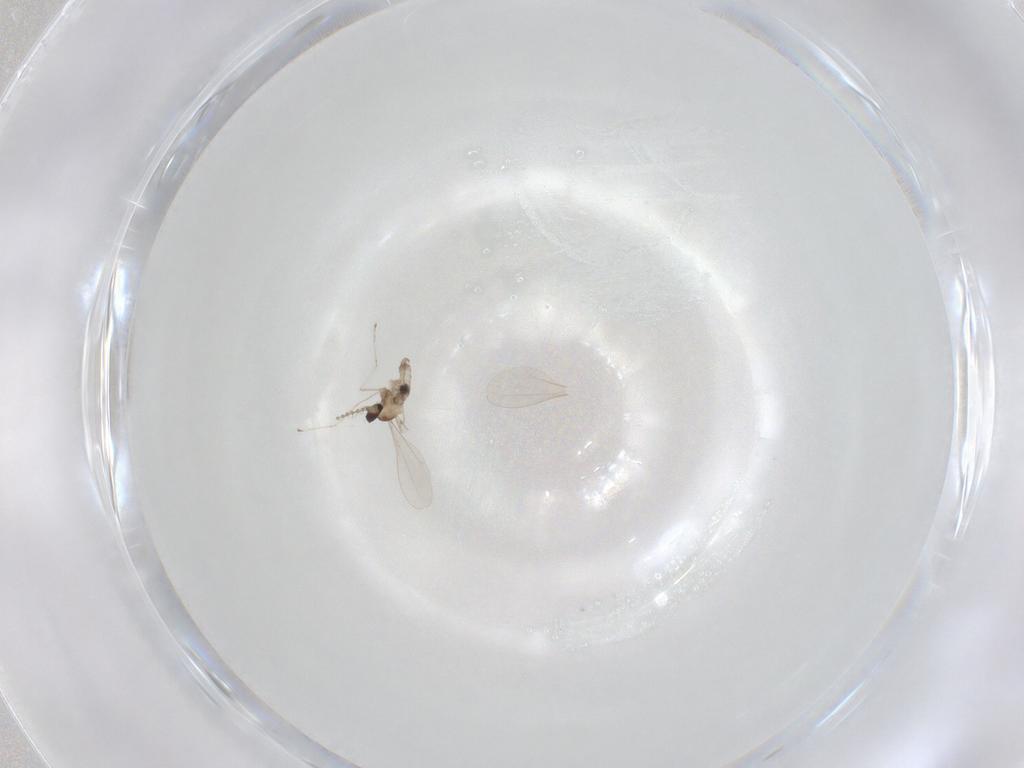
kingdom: Animalia
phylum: Arthropoda
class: Insecta
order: Diptera
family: Cecidomyiidae
